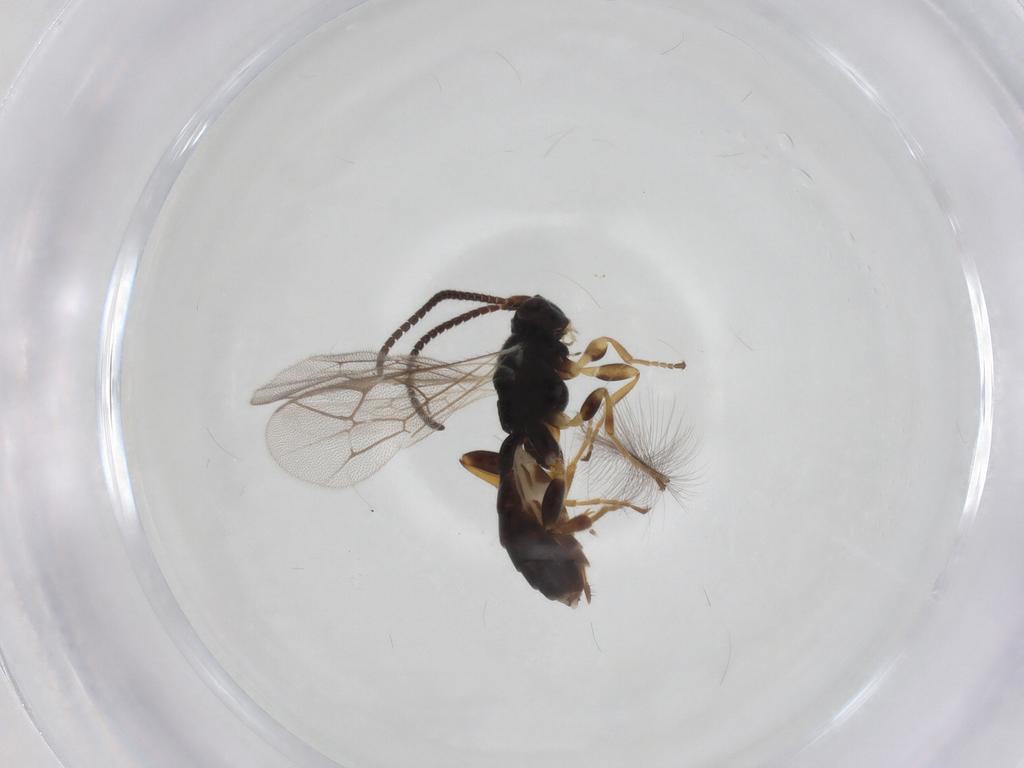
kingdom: Animalia
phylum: Arthropoda
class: Insecta
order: Hymenoptera
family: Ichneumonidae
